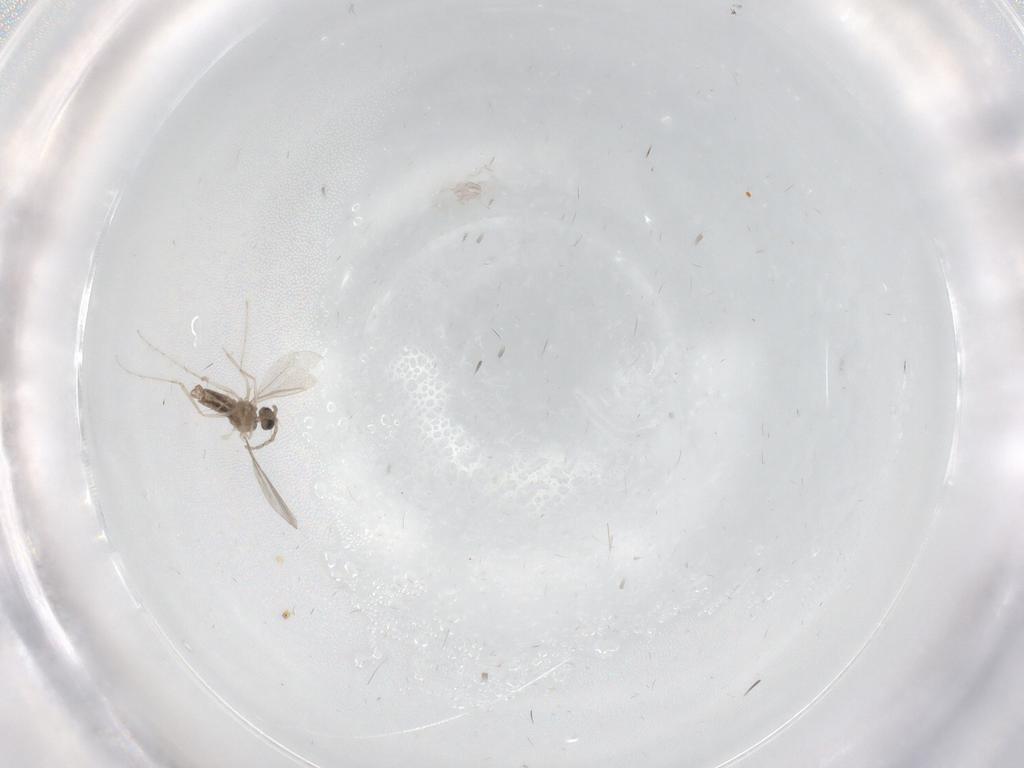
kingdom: Animalia
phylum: Arthropoda
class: Insecta
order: Diptera
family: Cecidomyiidae
